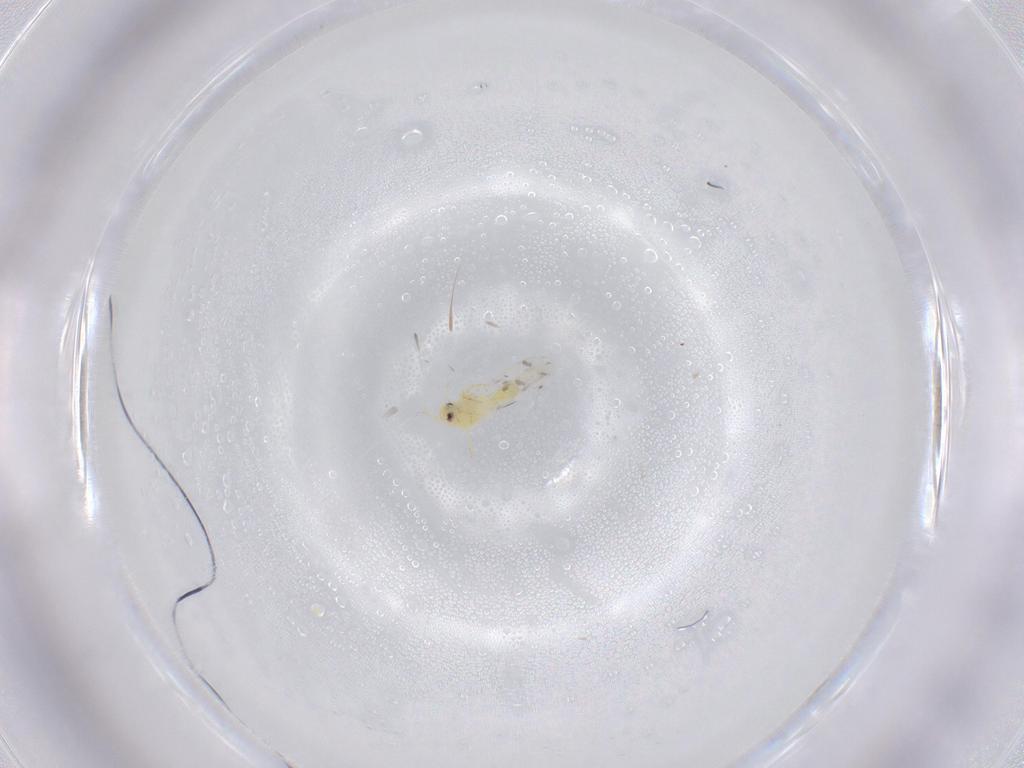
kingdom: Animalia
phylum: Arthropoda
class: Insecta
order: Hemiptera
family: Aleyrodidae
